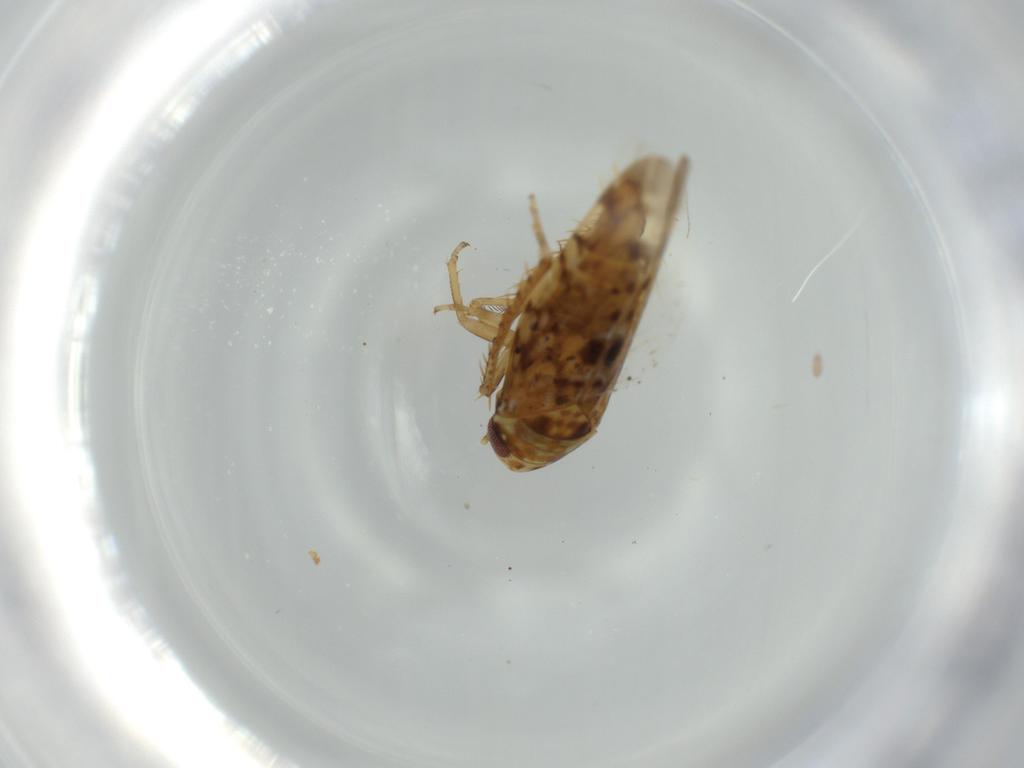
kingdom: Animalia
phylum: Arthropoda
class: Insecta
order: Hemiptera
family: Cicadellidae
